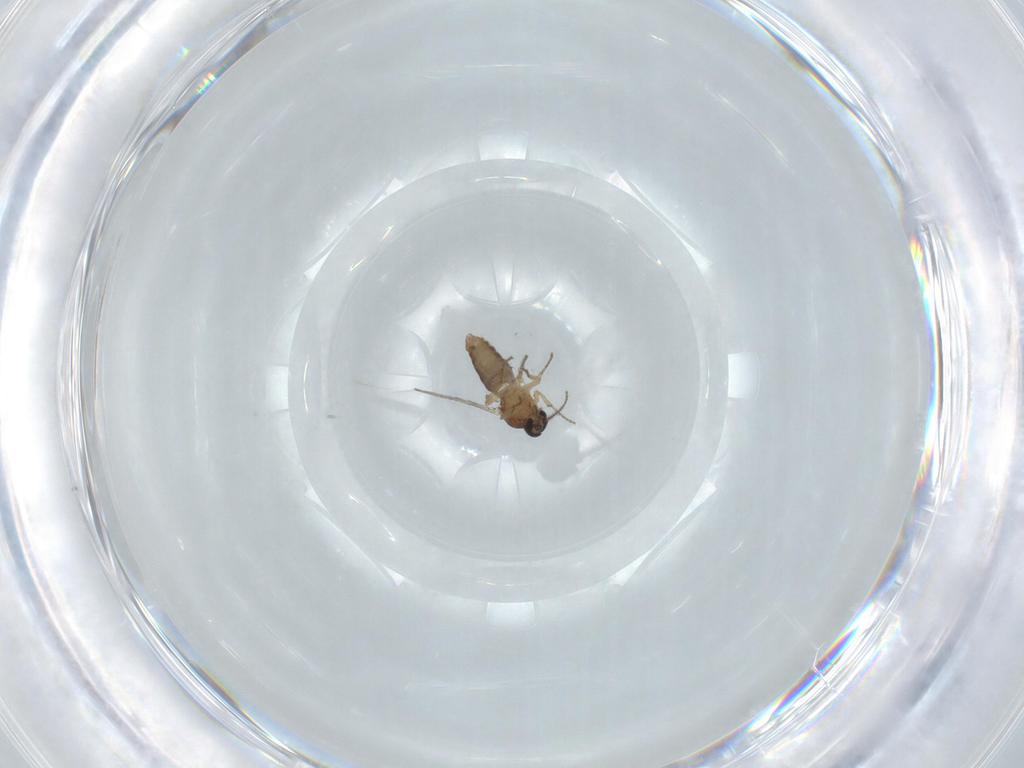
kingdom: Animalia
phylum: Arthropoda
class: Insecta
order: Diptera
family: Ceratopogonidae
